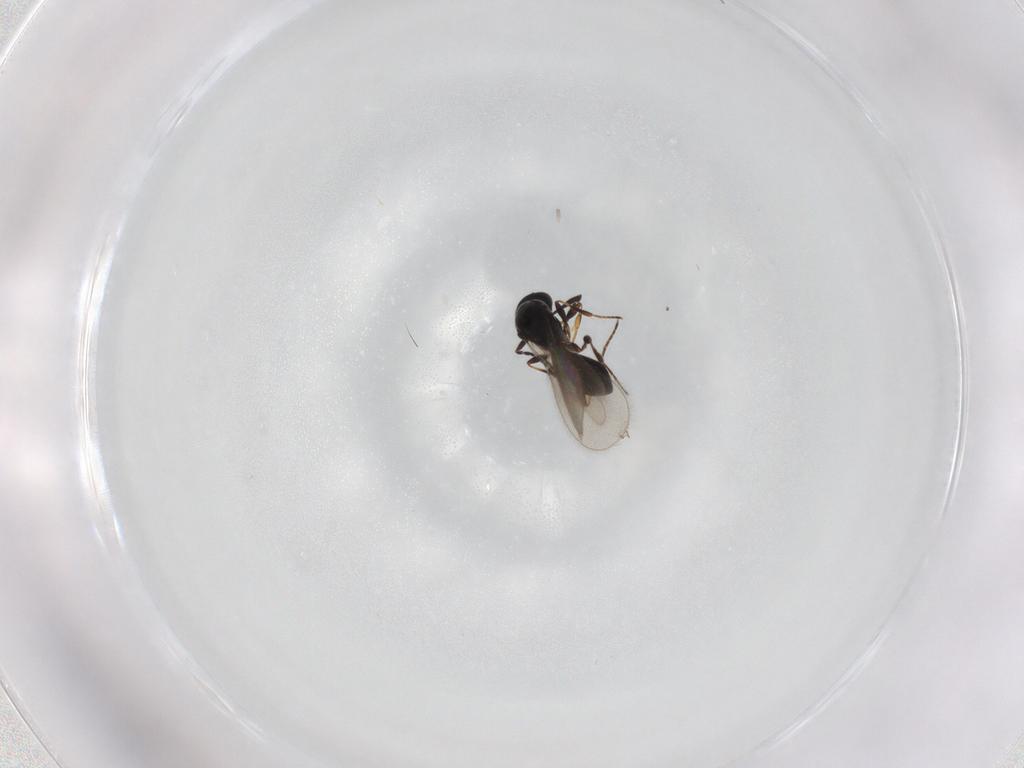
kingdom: Animalia
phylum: Arthropoda
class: Insecta
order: Hymenoptera
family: Platygastridae
